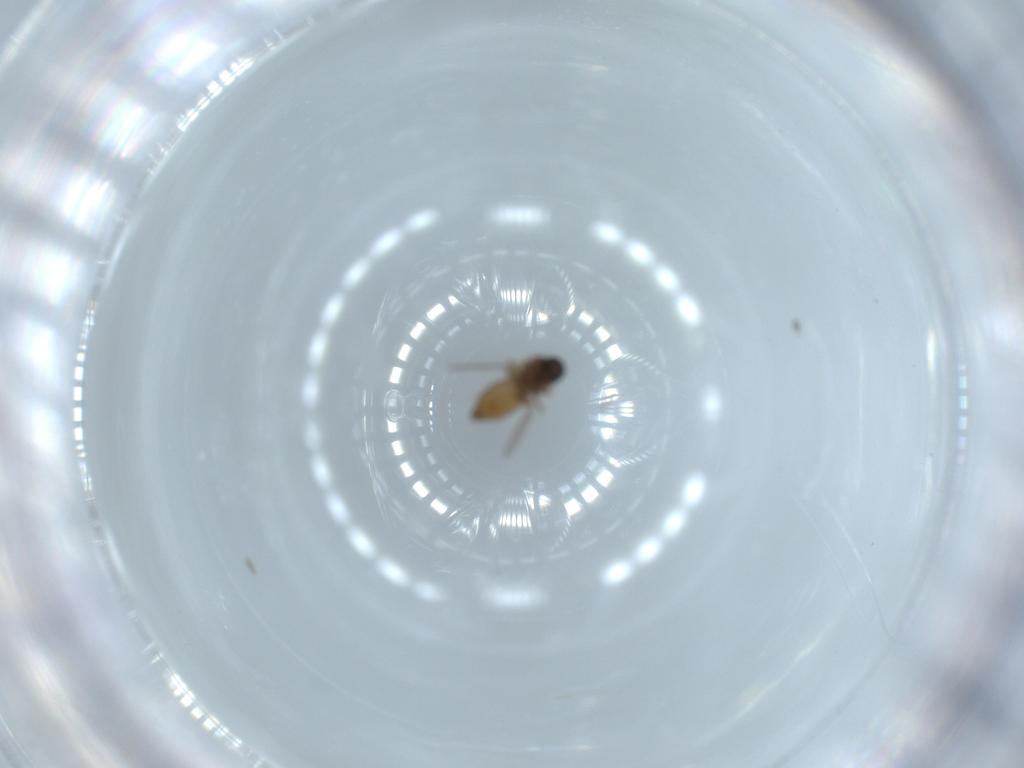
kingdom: Animalia
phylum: Arthropoda
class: Insecta
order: Diptera
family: Ceratopogonidae
